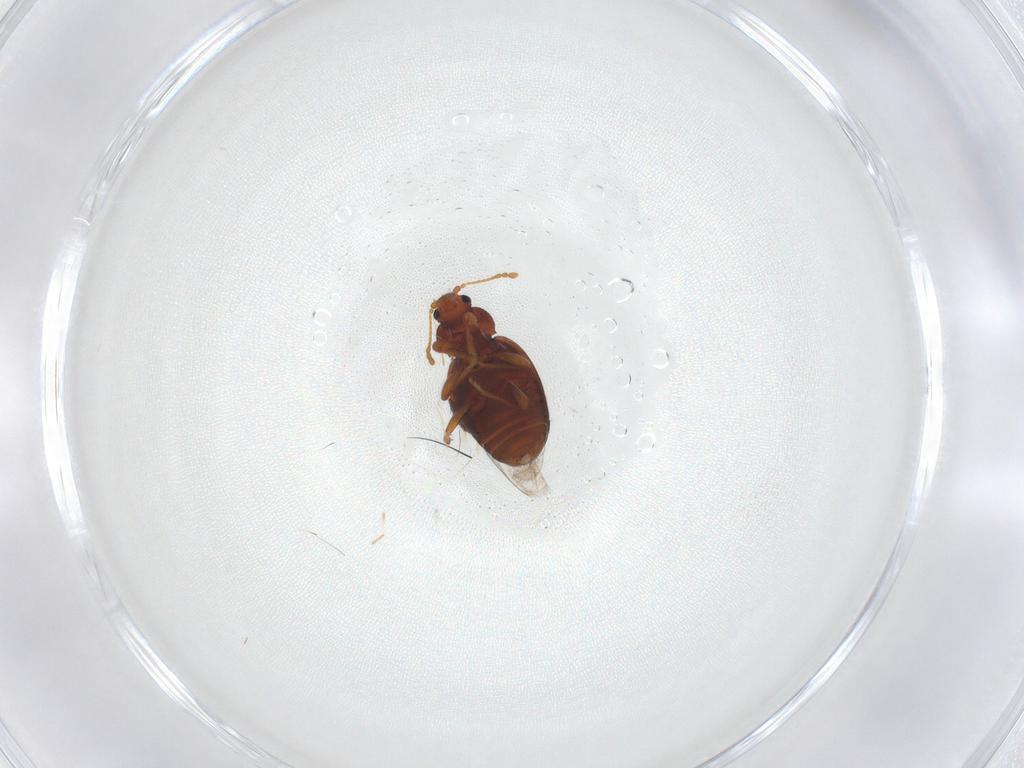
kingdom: Animalia
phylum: Arthropoda
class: Insecta
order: Coleoptera
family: Latridiidae
